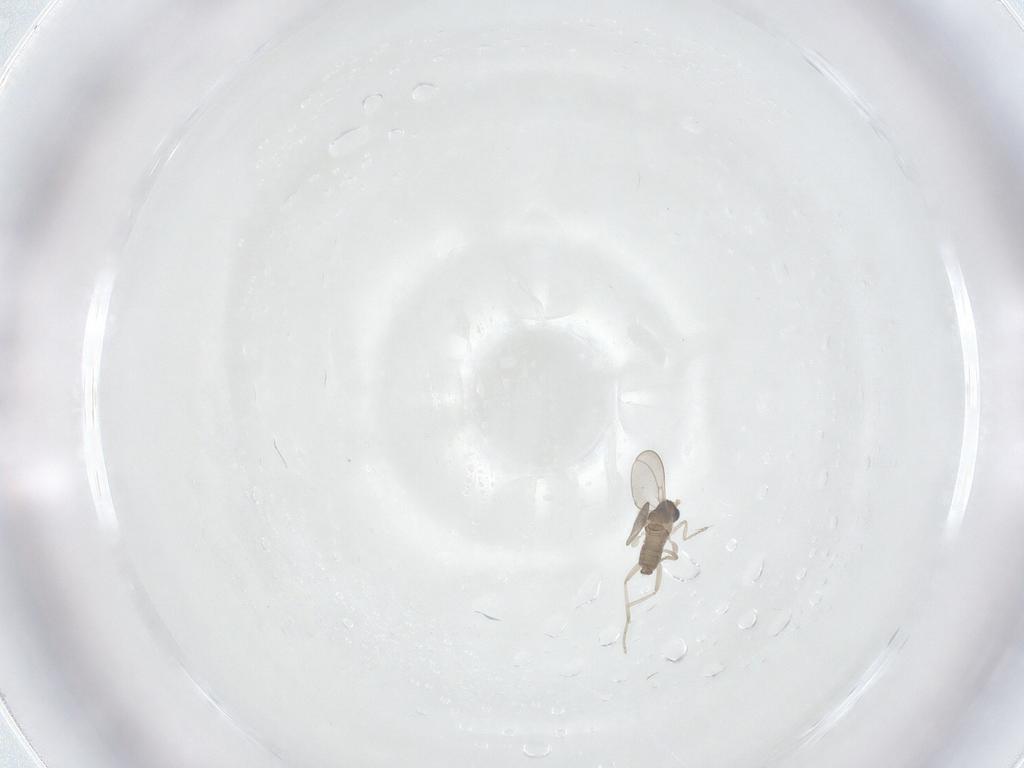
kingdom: Animalia
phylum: Arthropoda
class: Insecta
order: Diptera
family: Cecidomyiidae
